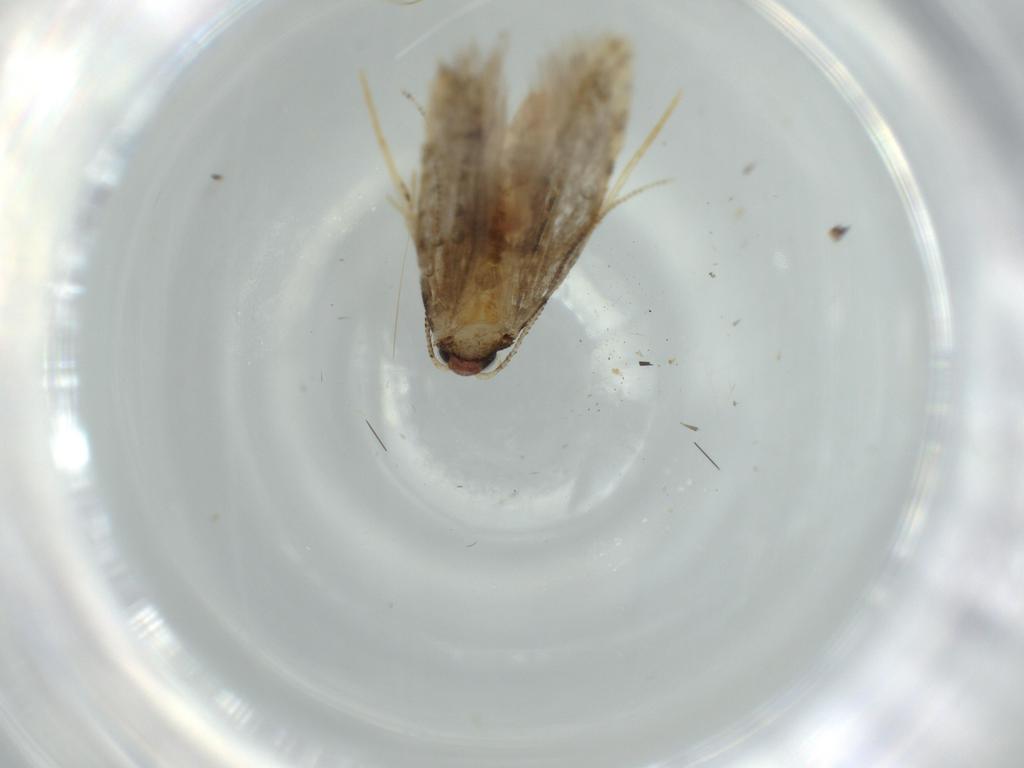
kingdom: Animalia
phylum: Arthropoda
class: Insecta
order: Lepidoptera
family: Tineidae
